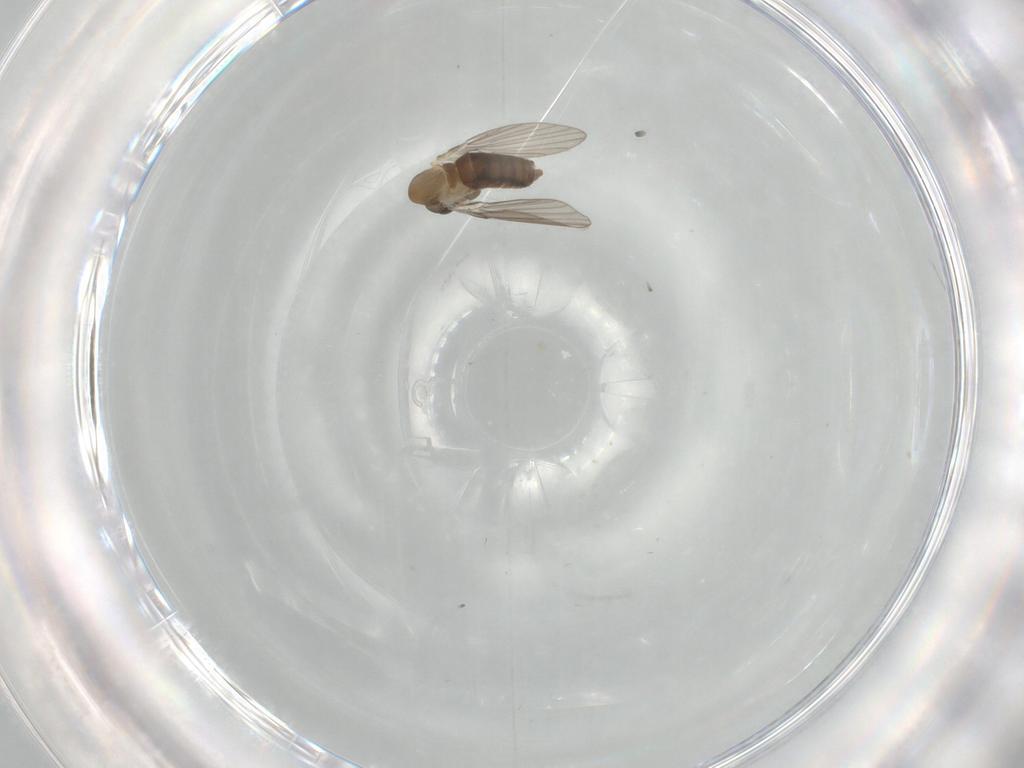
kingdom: Animalia
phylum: Arthropoda
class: Insecta
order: Diptera
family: Psychodidae
